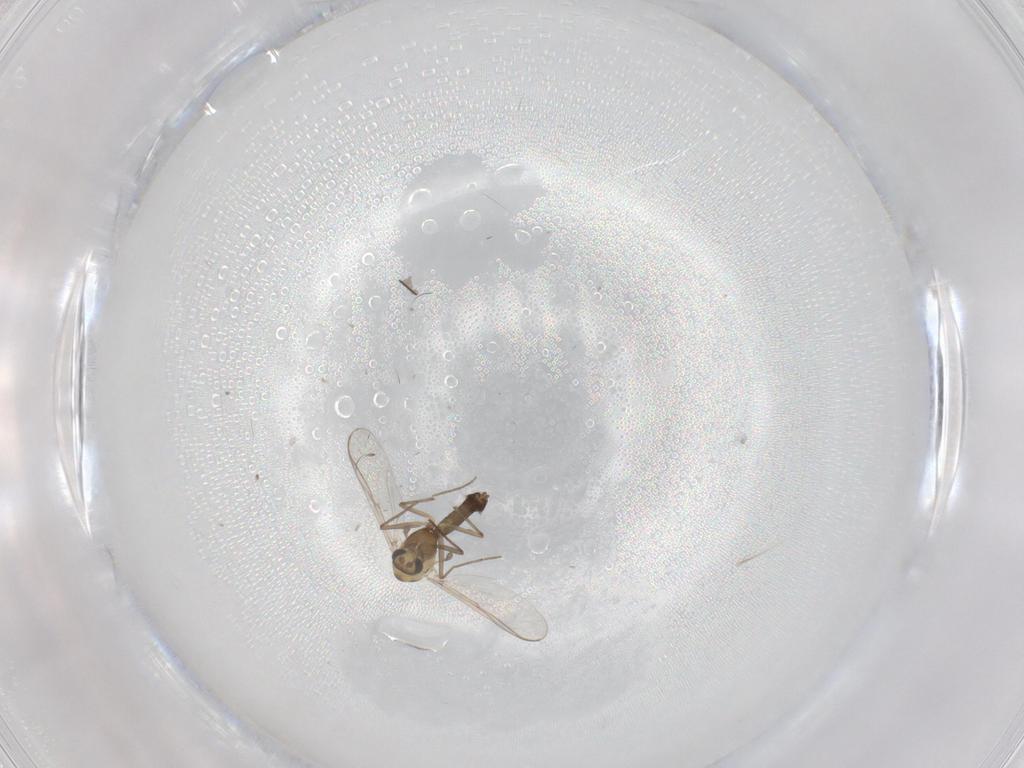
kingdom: Animalia
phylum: Arthropoda
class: Insecta
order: Diptera
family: Chironomidae
